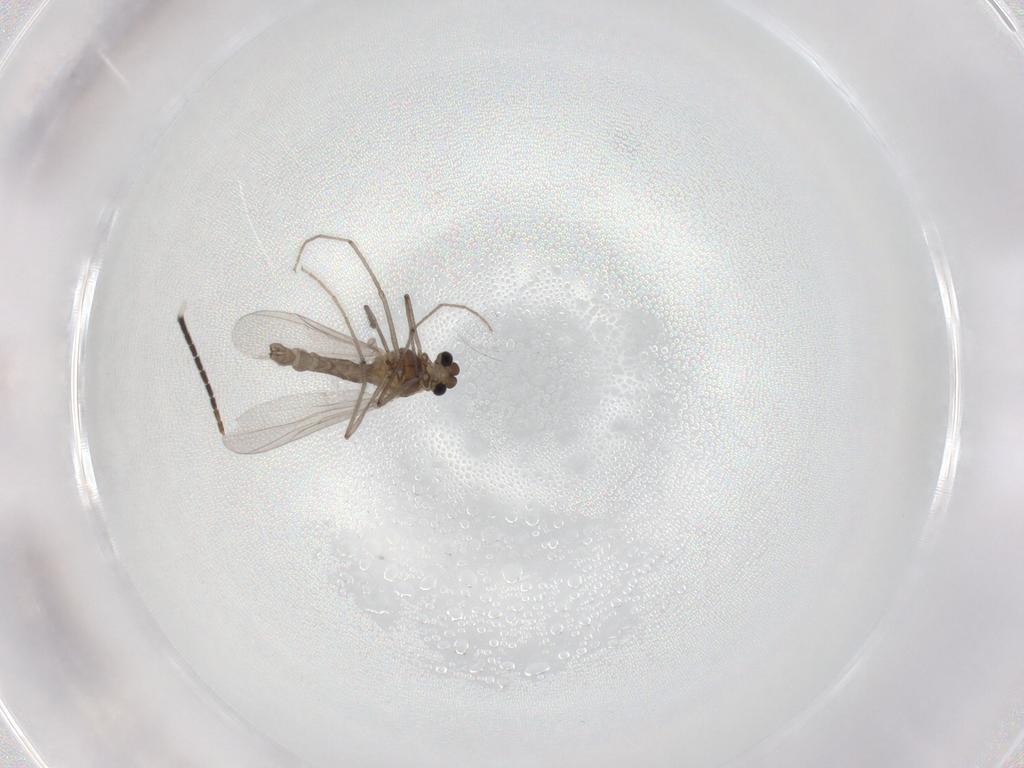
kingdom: Animalia
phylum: Arthropoda
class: Insecta
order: Diptera
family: Chironomidae
